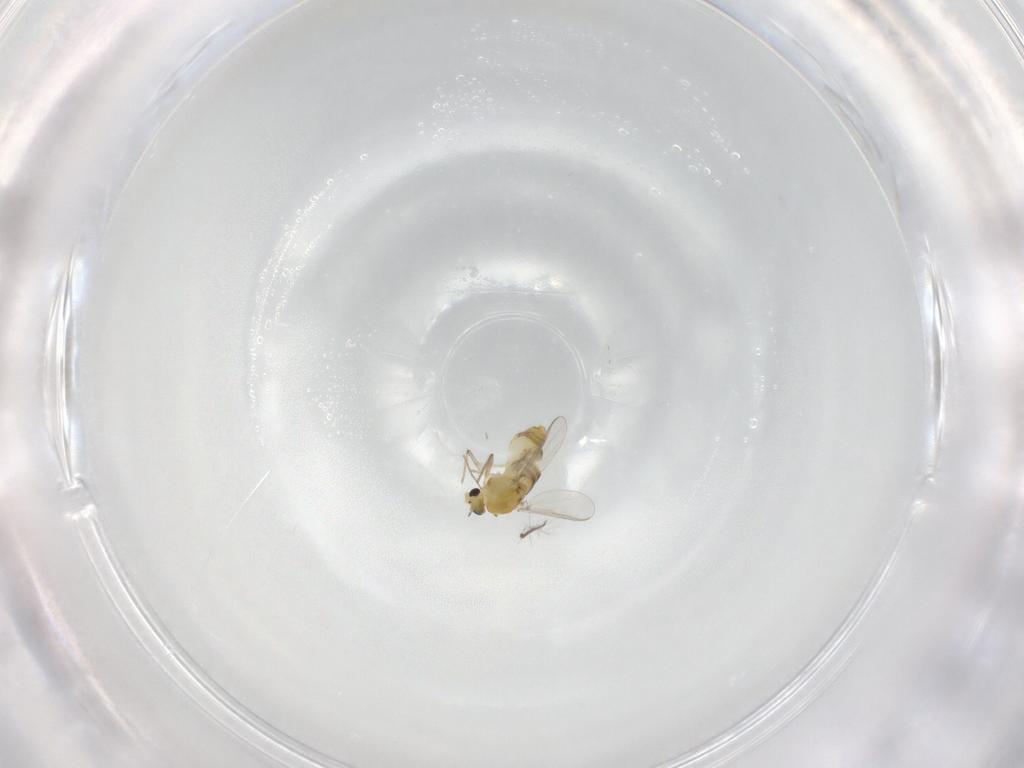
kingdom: Animalia
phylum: Arthropoda
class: Insecta
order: Diptera
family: Chironomidae
